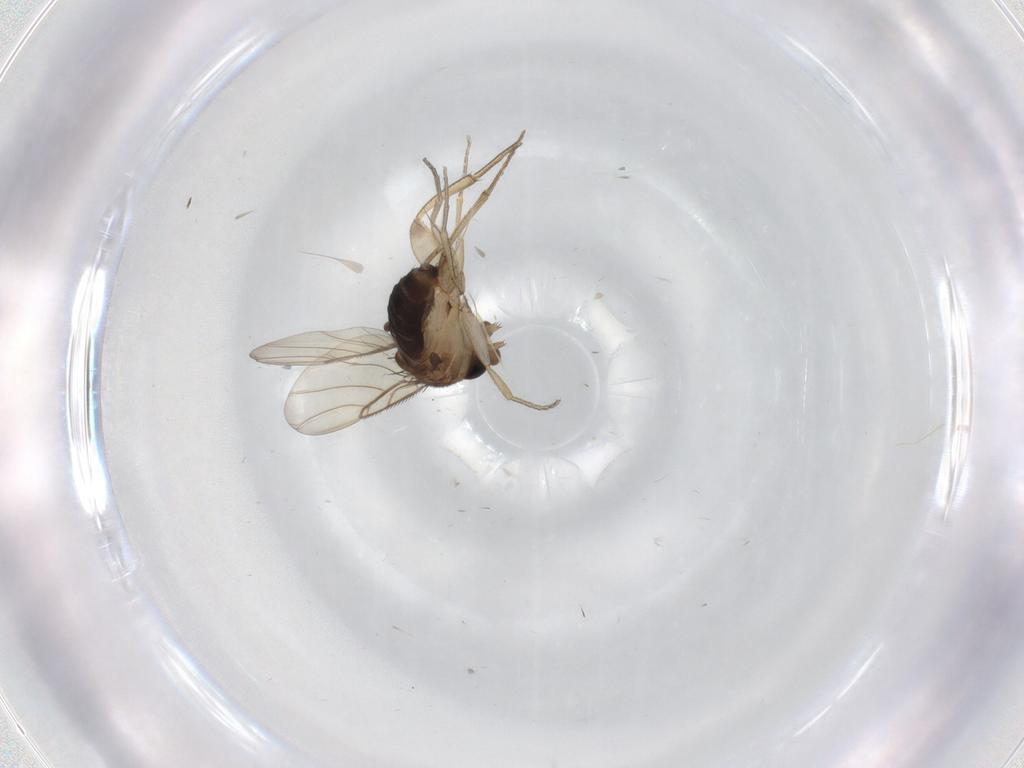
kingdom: Animalia
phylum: Arthropoda
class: Insecta
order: Diptera
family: Phoridae
